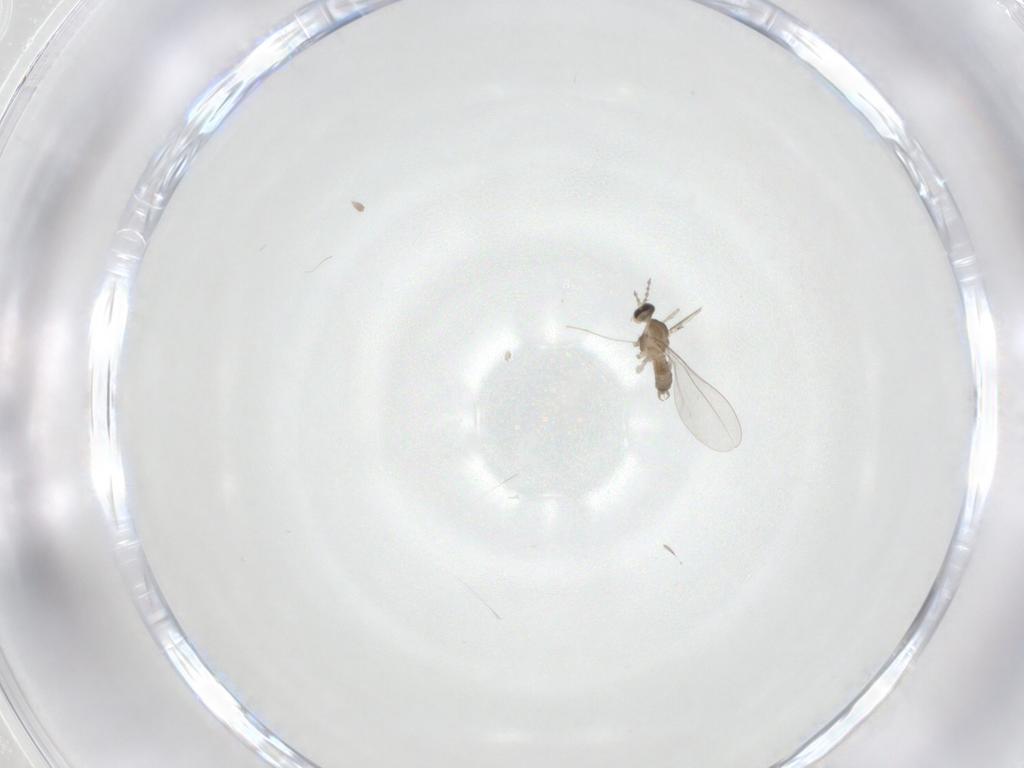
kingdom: Animalia
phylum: Arthropoda
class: Insecta
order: Diptera
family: Cecidomyiidae
